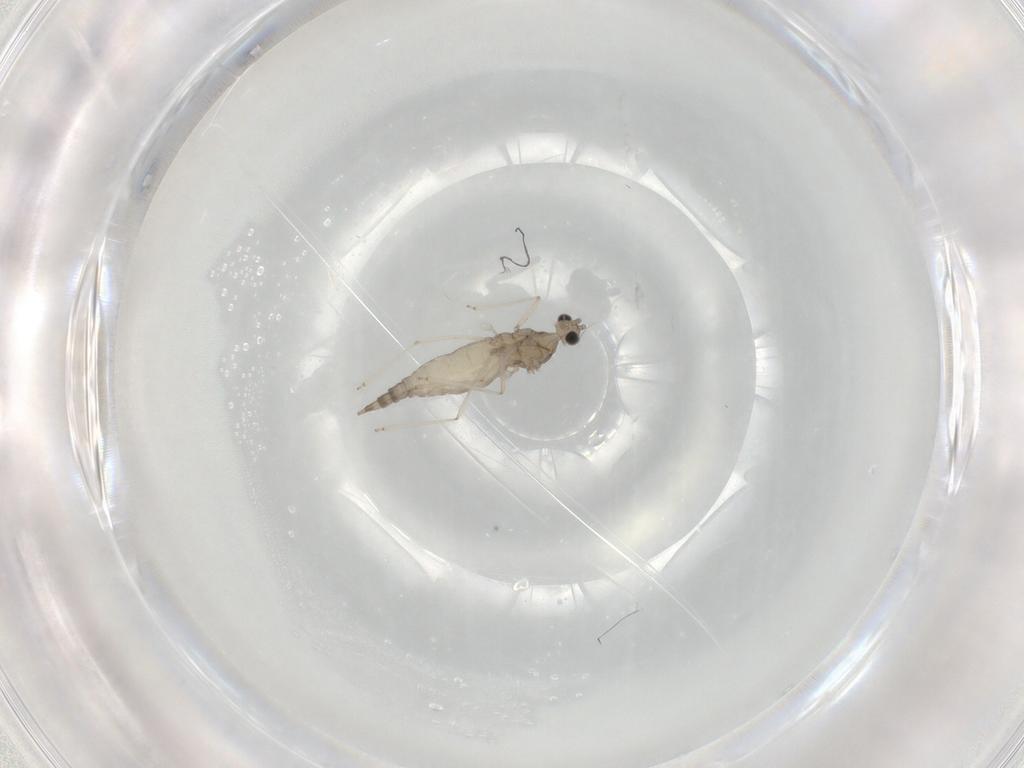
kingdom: Animalia
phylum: Arthropoda
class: Insecta
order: Diptera
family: Cecidomyiidae
